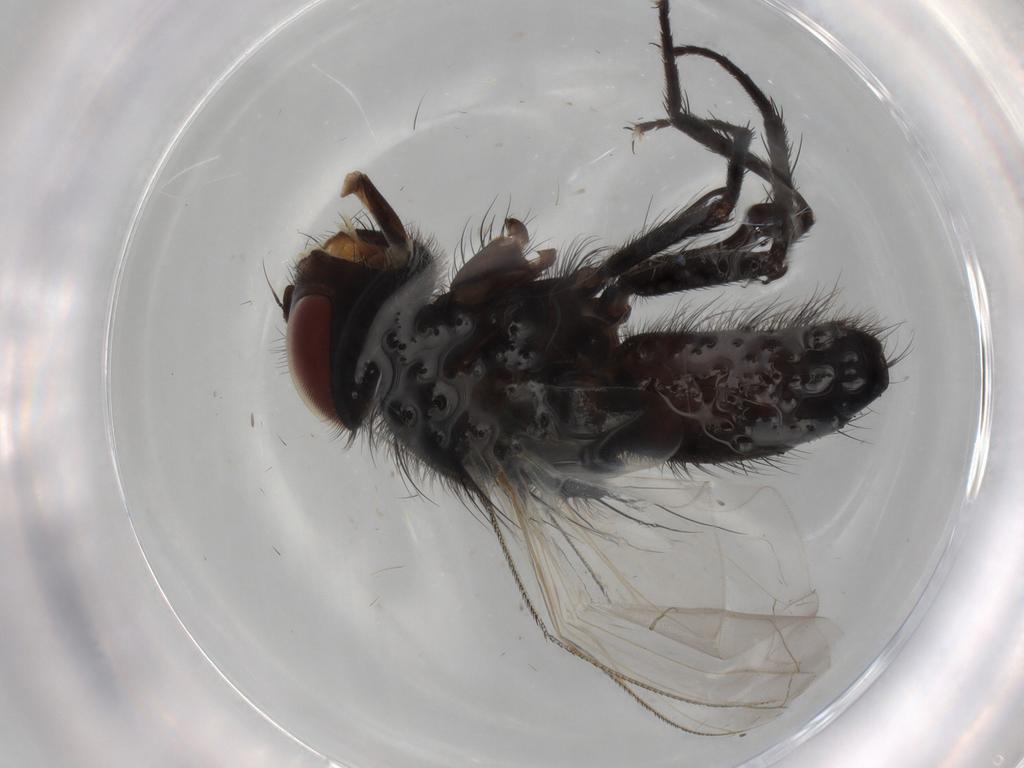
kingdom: Animalia
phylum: Arthropoda
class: Insecta
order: Diptera
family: Tachinidae
